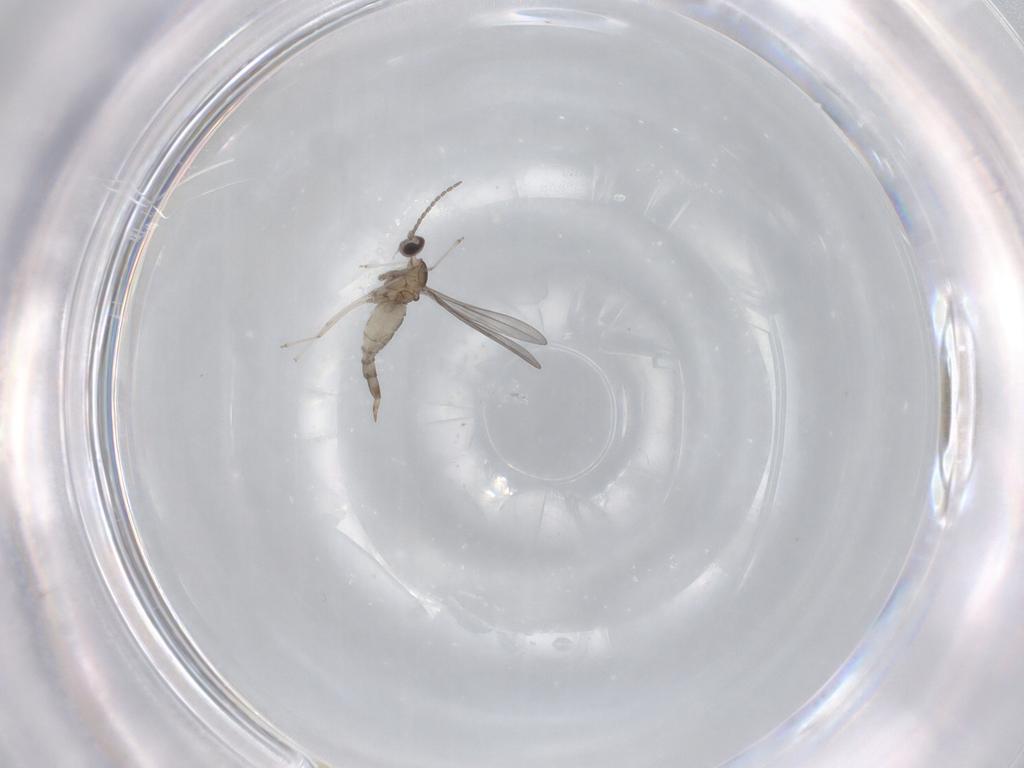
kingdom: Animalia
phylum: Arthropoda
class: Insecta
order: Diptera
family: Cecidomyiidae
